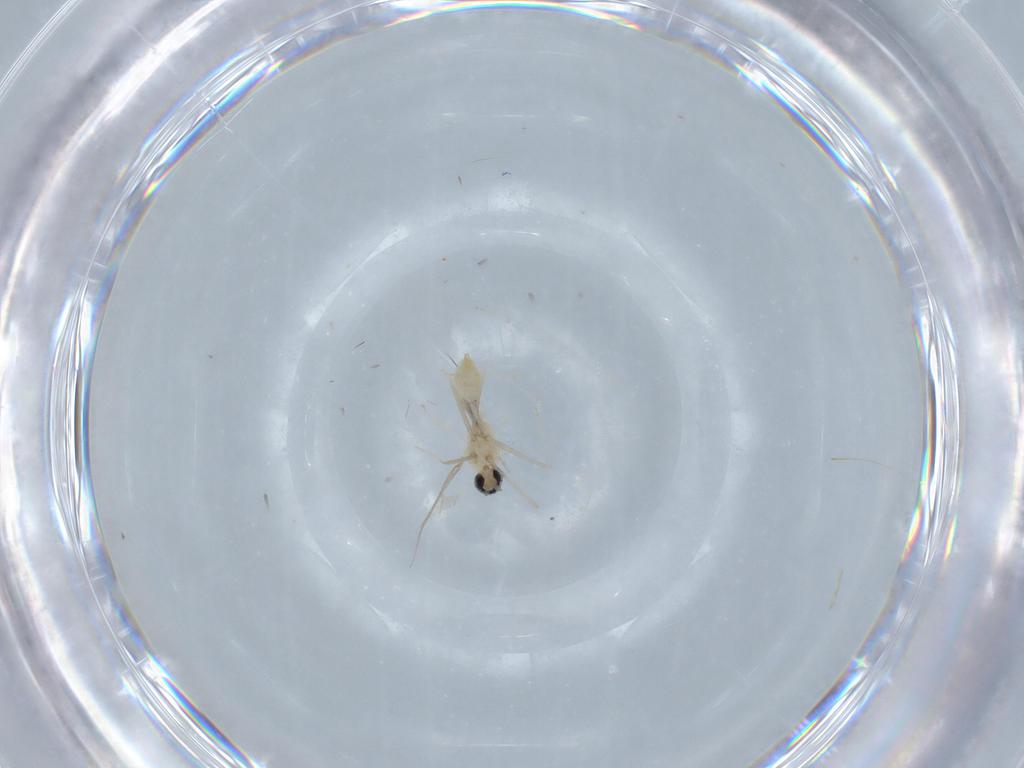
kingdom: Animalia
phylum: Arthropoda
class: Insecta
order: Diptera
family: Cecidomyiidae
